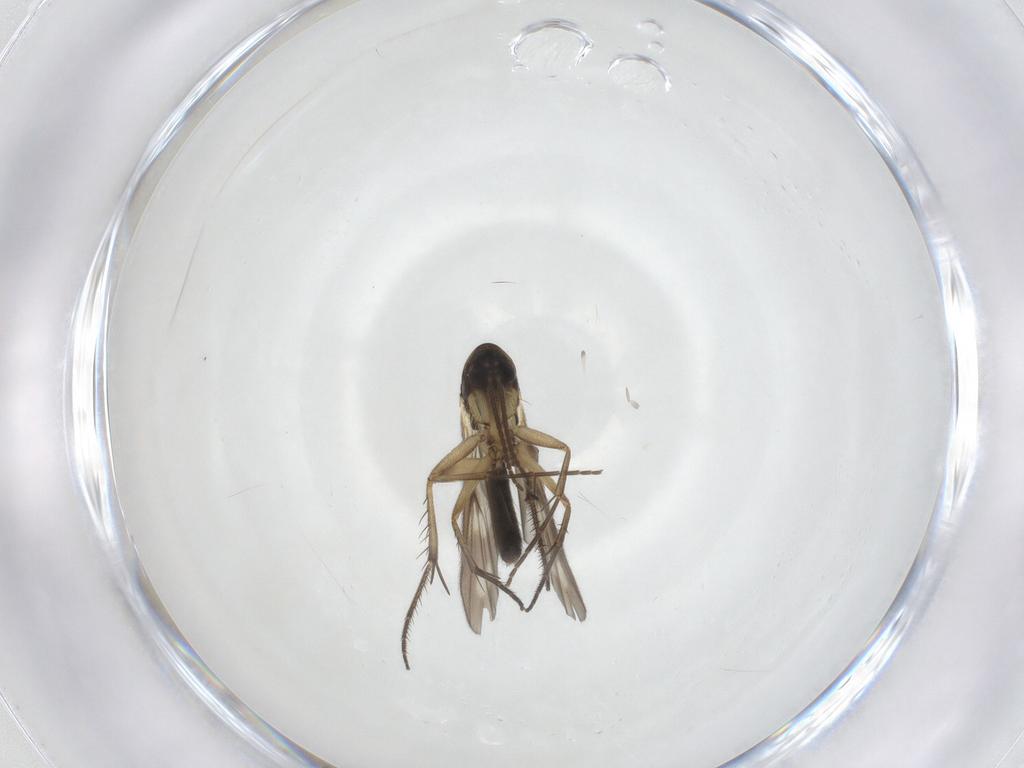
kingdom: Animalia
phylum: Arthropoda
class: Insecta
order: Diptera
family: Mycetophilidae
